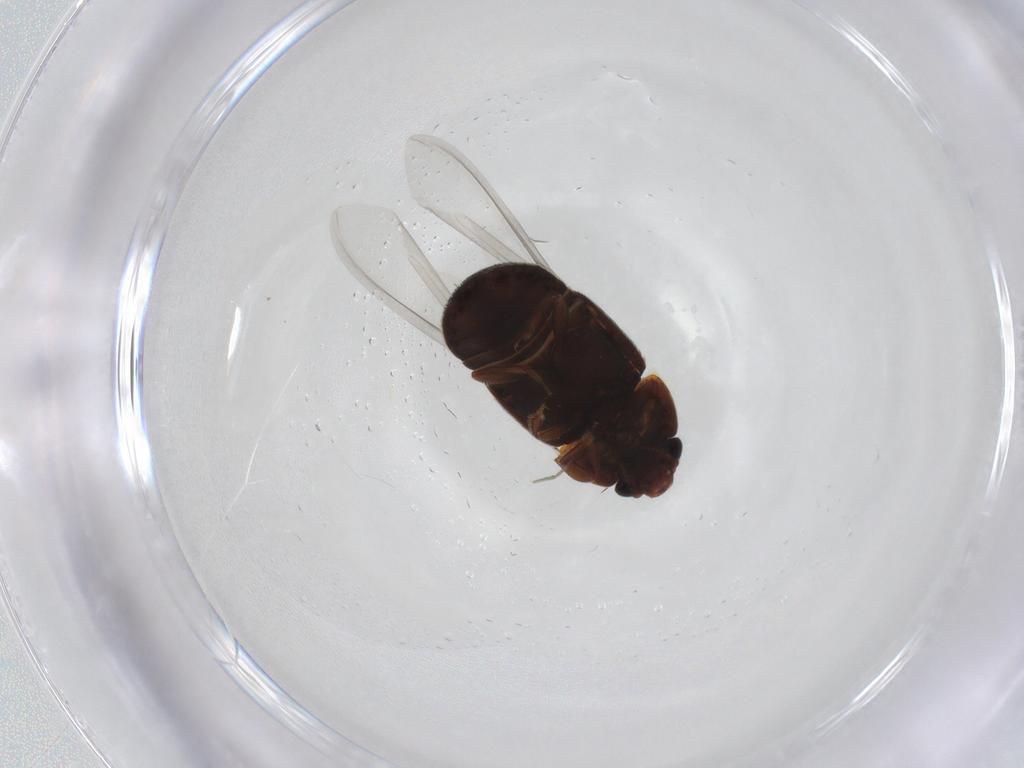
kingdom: Animalia
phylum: Arthropoda
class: Insecta
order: Coleoptera
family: Nitidulidae
